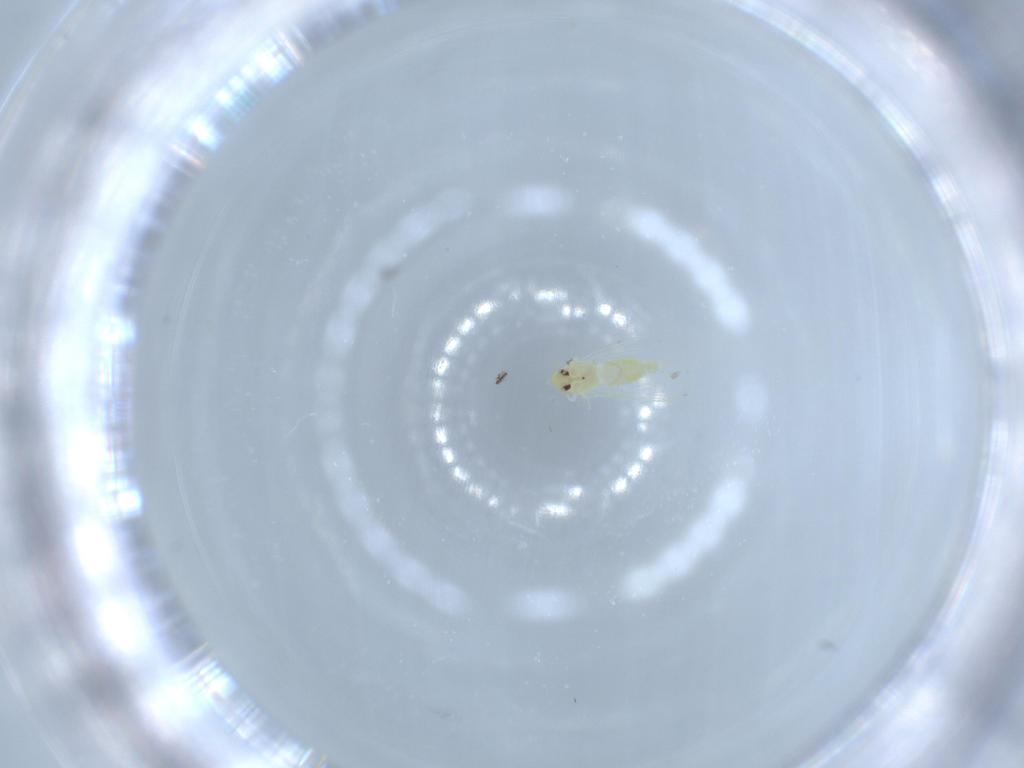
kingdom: Animalia
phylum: Arthropoda
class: Insecta
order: Hemiptera
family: Aleyrodidae
